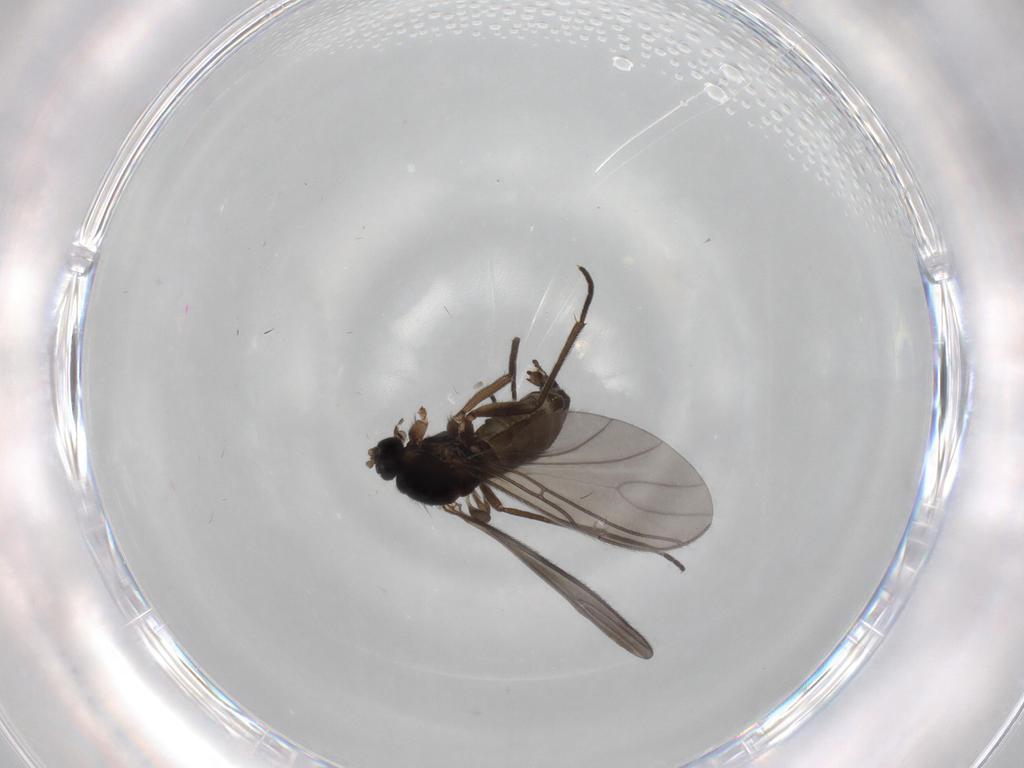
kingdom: Animalia
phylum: Arthropoda
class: Insecta
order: Diptera
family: Sciaridae
